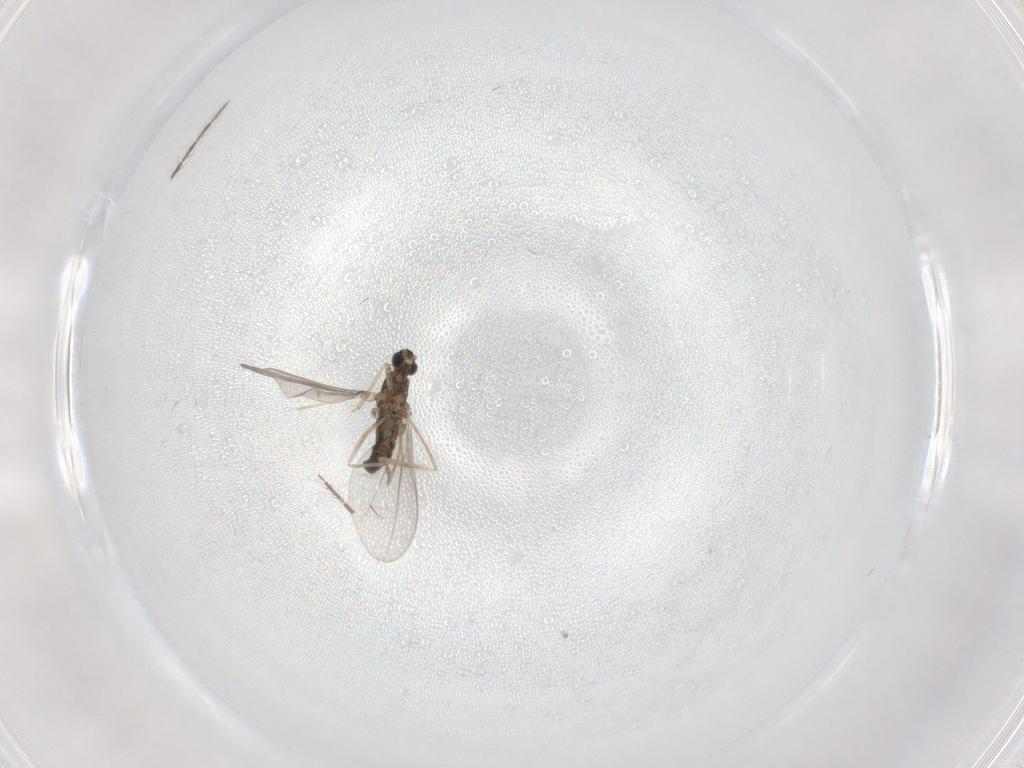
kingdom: Animalia
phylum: Arthropoda
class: Insecta
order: Diptera
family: Cecidomyiidae
